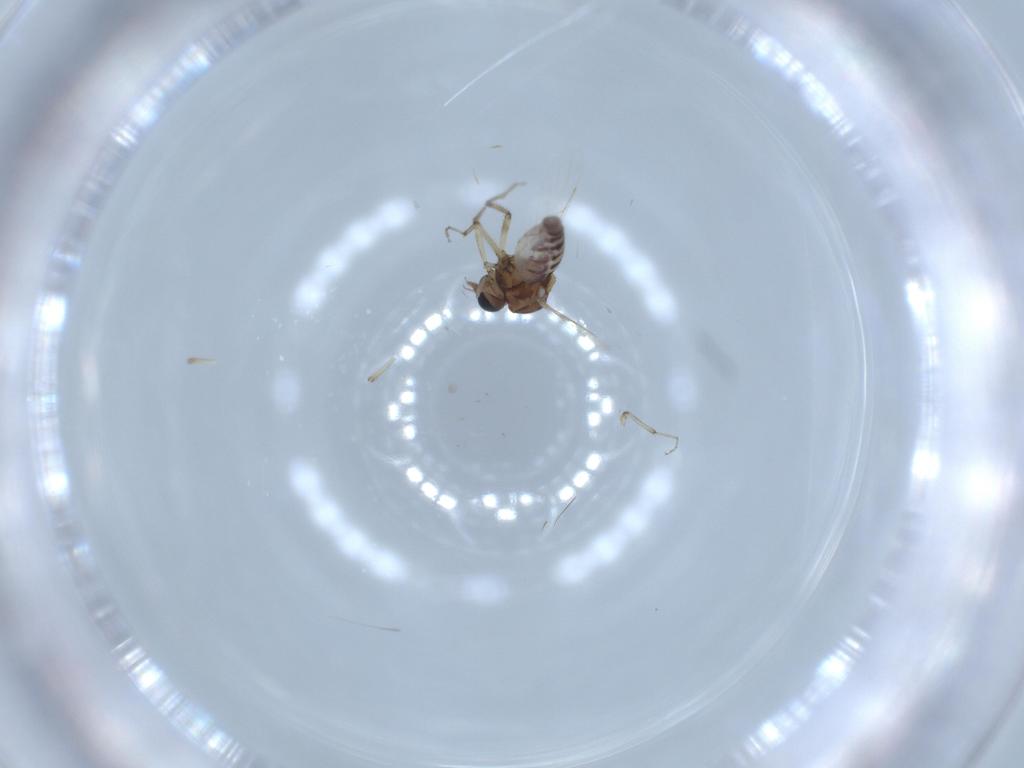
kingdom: Animalia
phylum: Arthropoda
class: Insecta
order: Diptera
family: Ceratopogonidae
